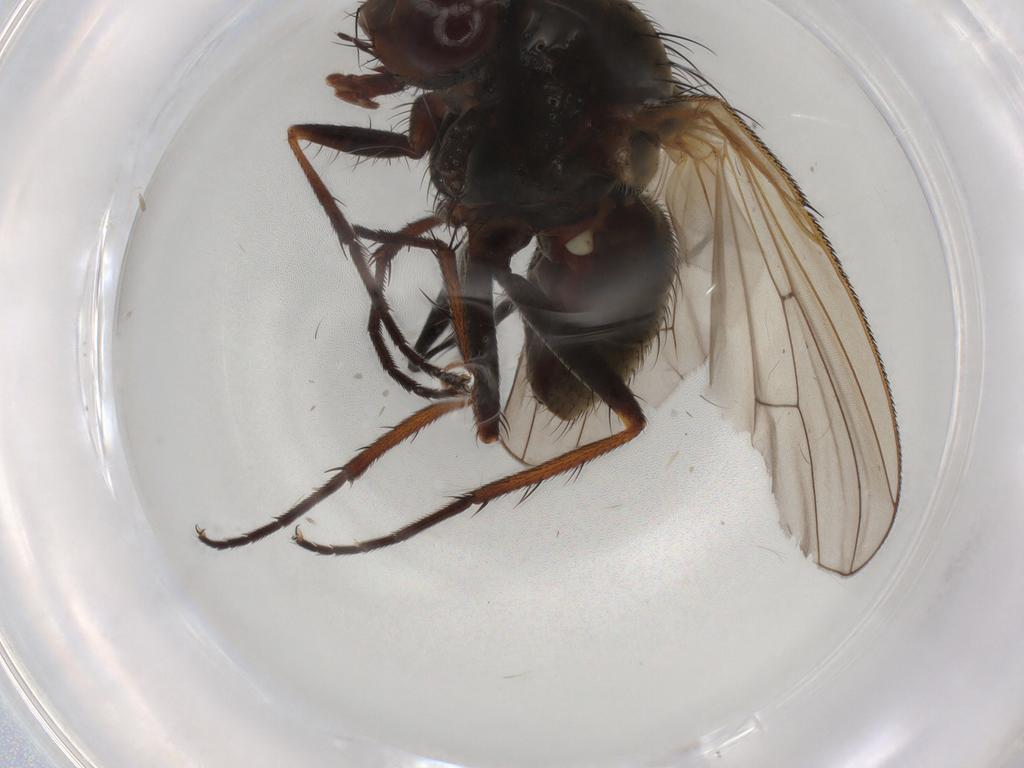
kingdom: Animalia
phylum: Arthropoda
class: Insecta
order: Diptera
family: Anthomyiidae
